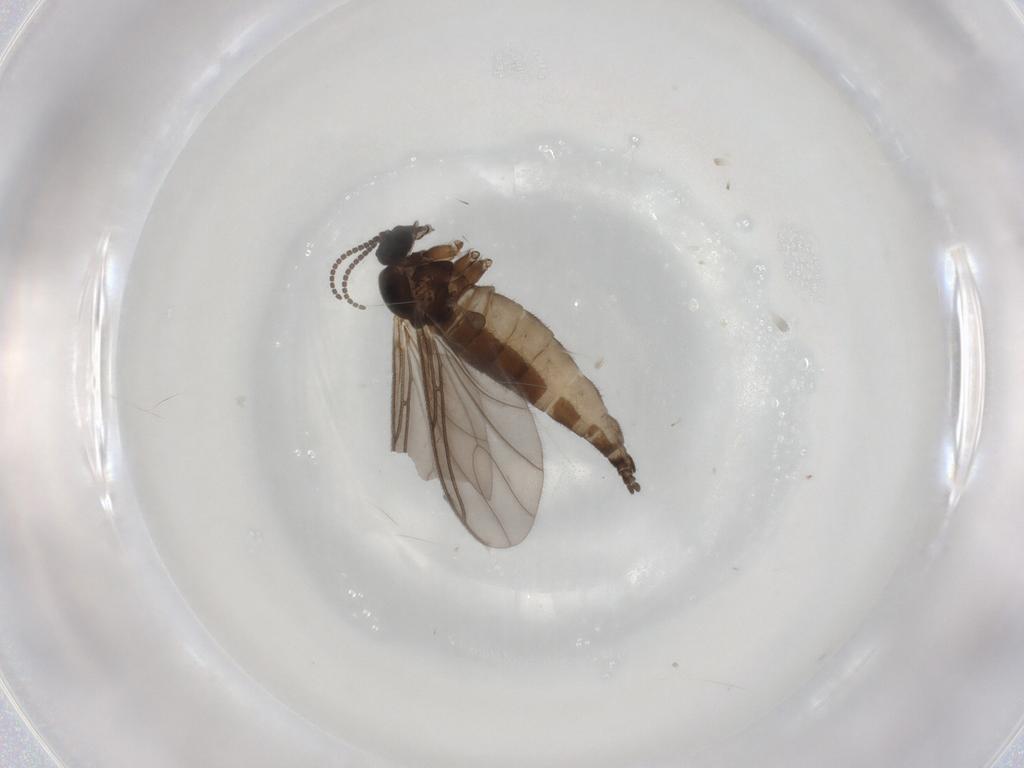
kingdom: Animalia
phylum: Arthropoda
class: Insecta
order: Diptera
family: Sciaridae
